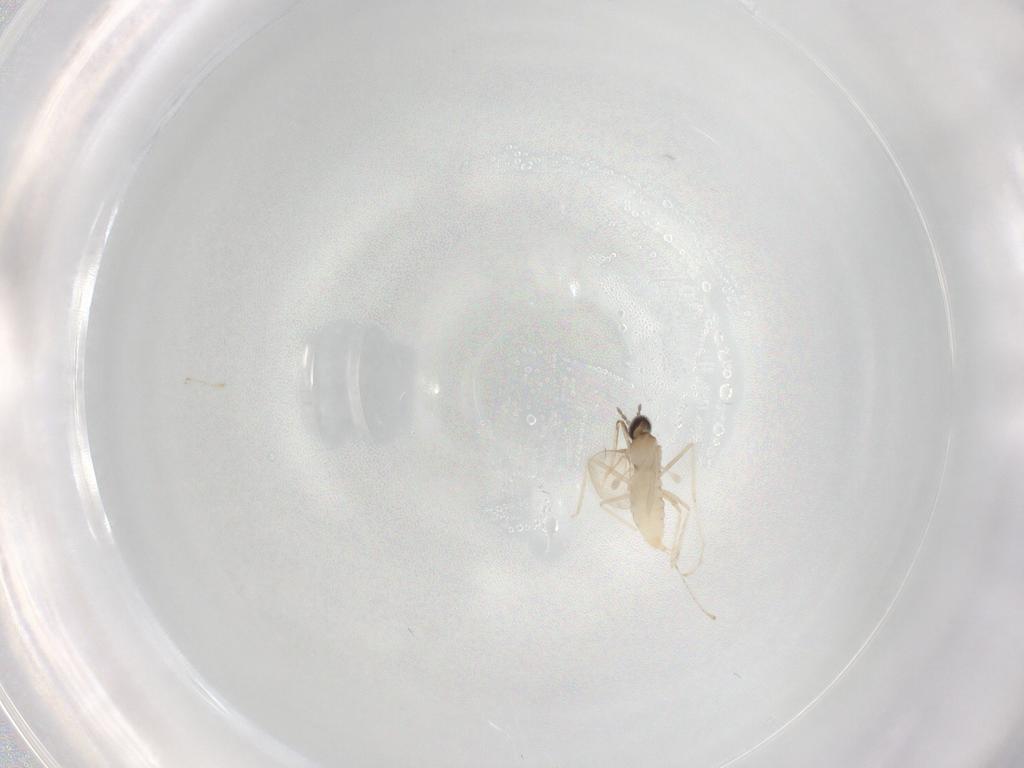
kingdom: Animalia
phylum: Arthropoda
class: Insecta
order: Diptera
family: Cecidomyiidae
